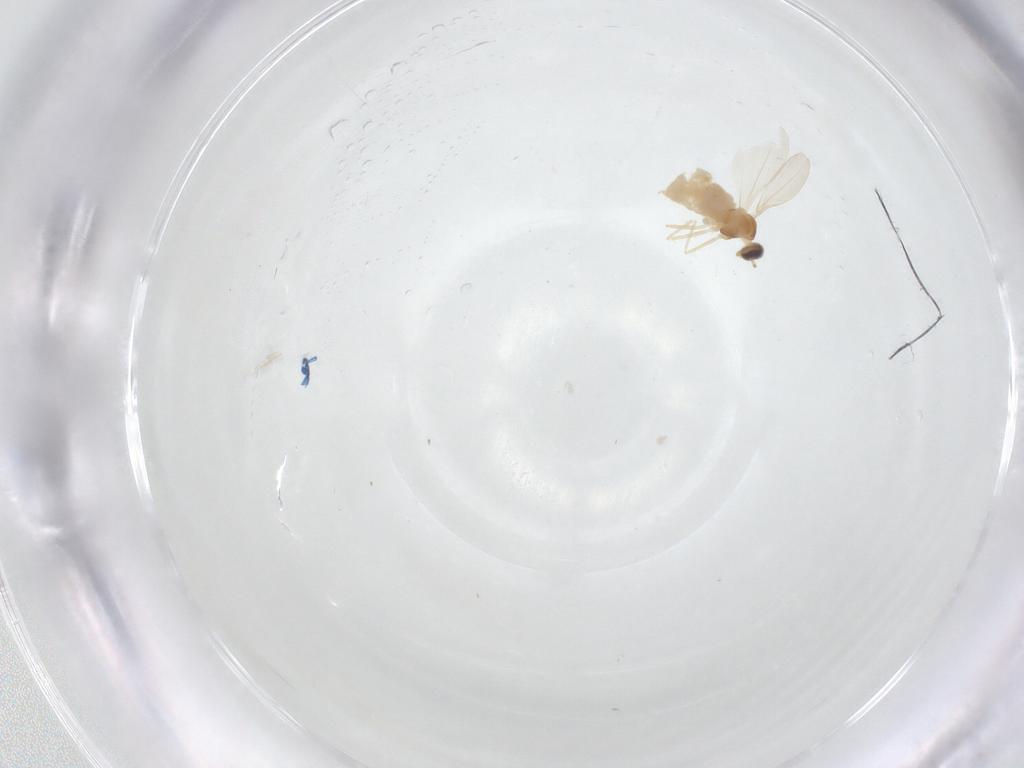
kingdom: Animalia
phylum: Arthropoda
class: Insecta
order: Diptera
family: Cecidomyiidae
